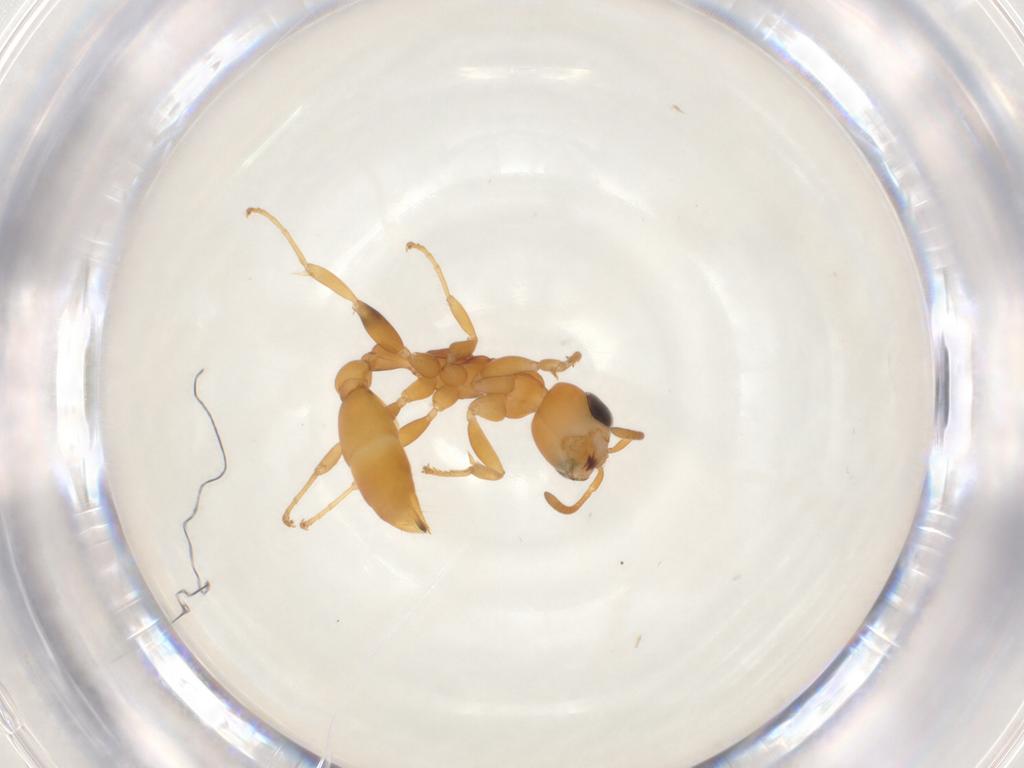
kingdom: Animalia
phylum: Arthropoda
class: Insecta
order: Hymenoptera
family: Formicidae
